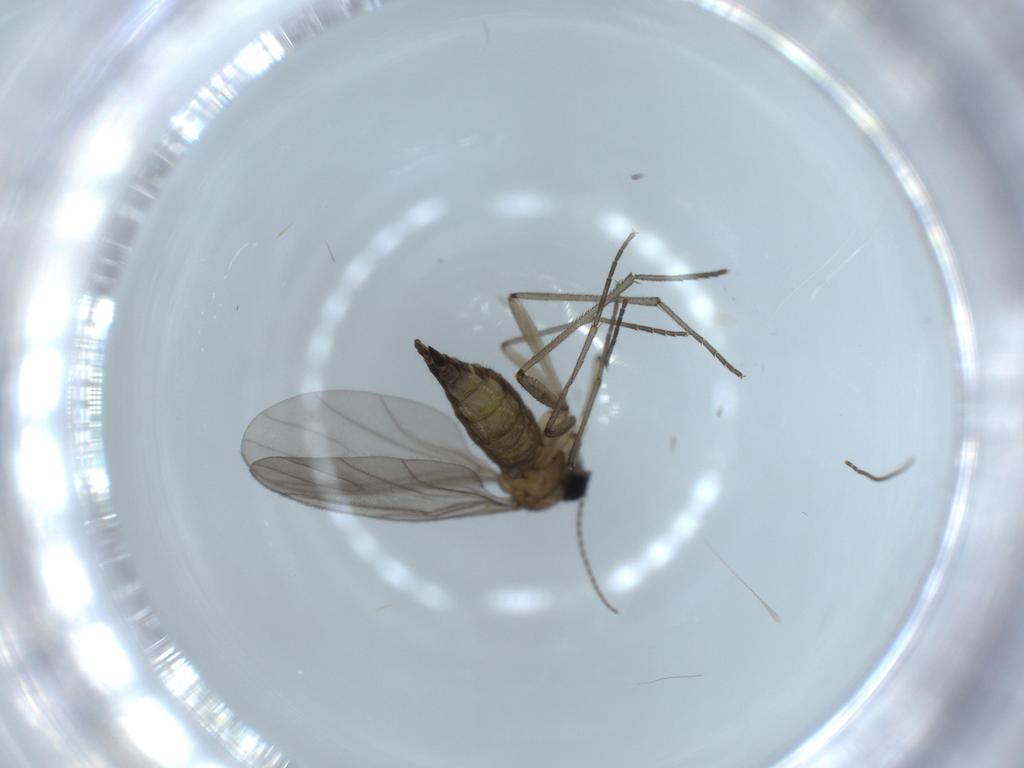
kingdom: Animalia
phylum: Arthropoda
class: Insecta
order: Diptera
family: Sciaridae
